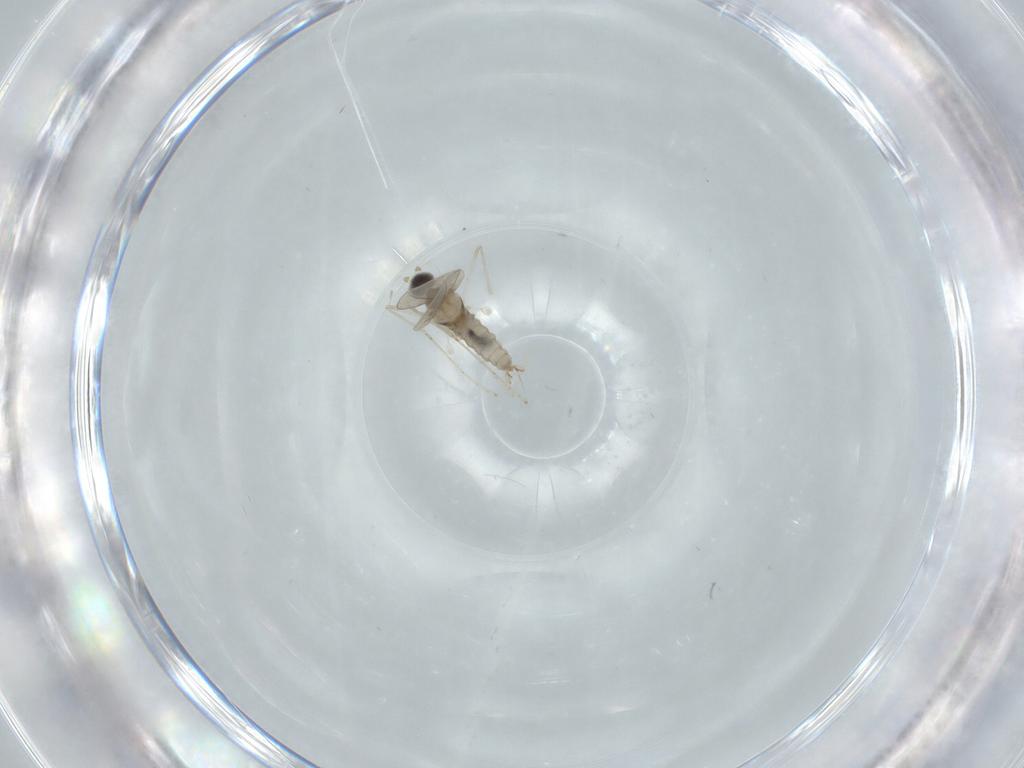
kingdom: Animalia
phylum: Arthropoda
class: Insecta
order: Diptera
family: Cecidomyiidae
